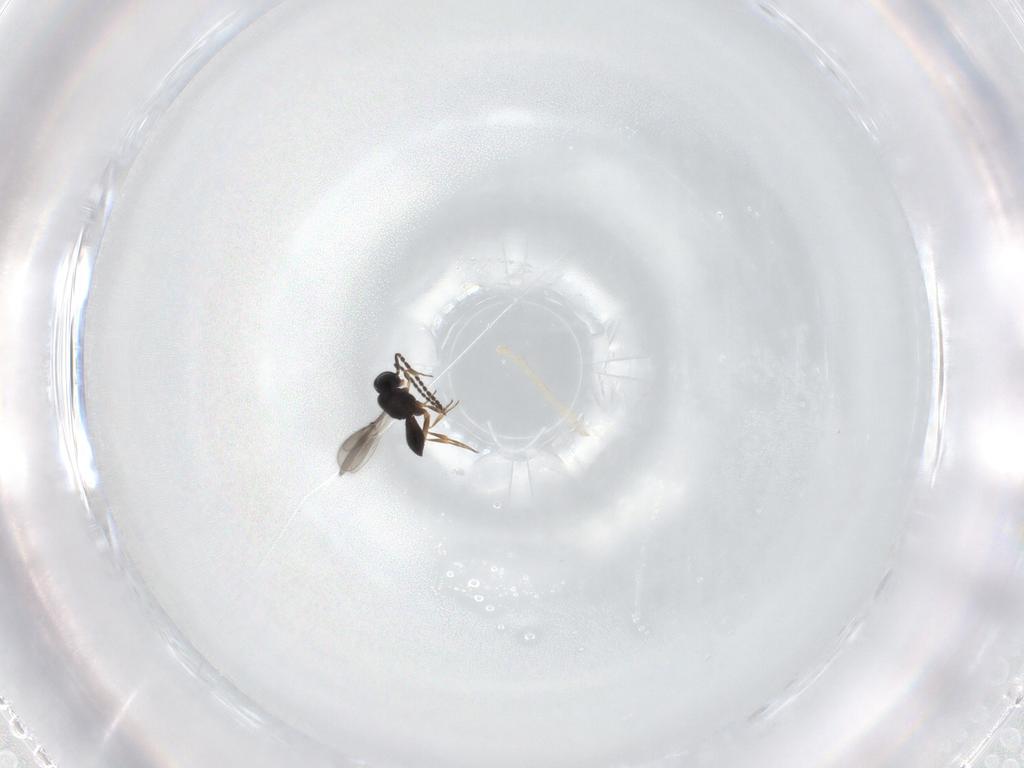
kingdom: Animalia
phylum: Arthropoda
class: Insecta
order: Hymenoptera
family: Scelionidae
